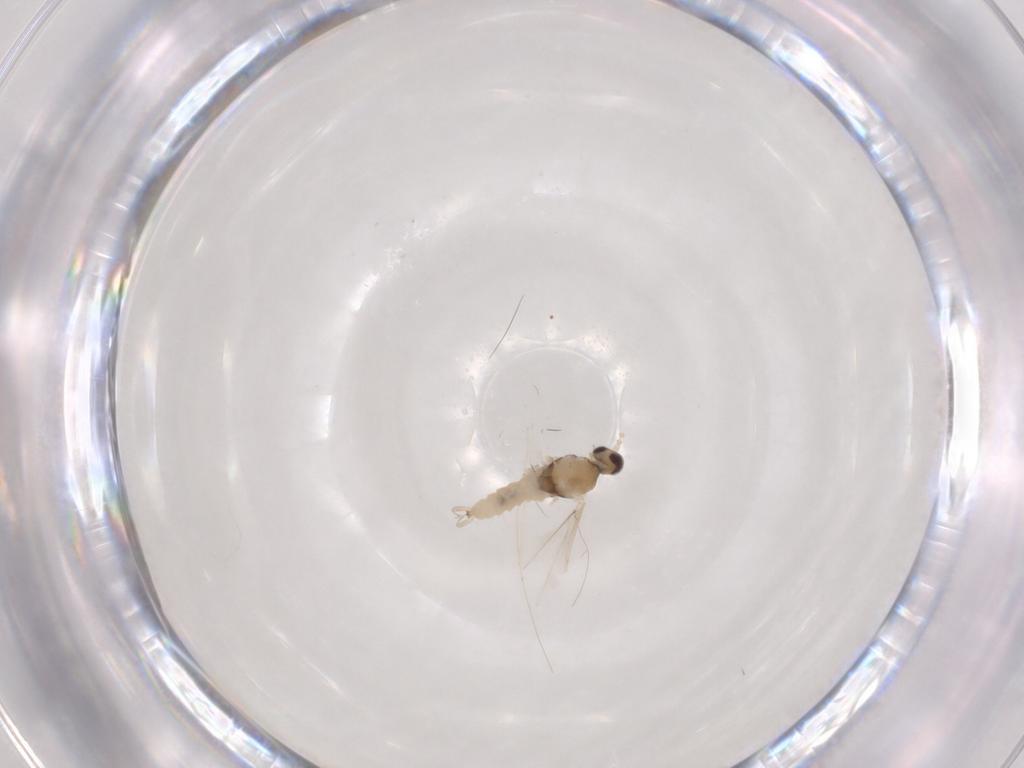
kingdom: Animalia
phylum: Arthropoda
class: Insecta
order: Diptera
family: Cecidomyiidae
